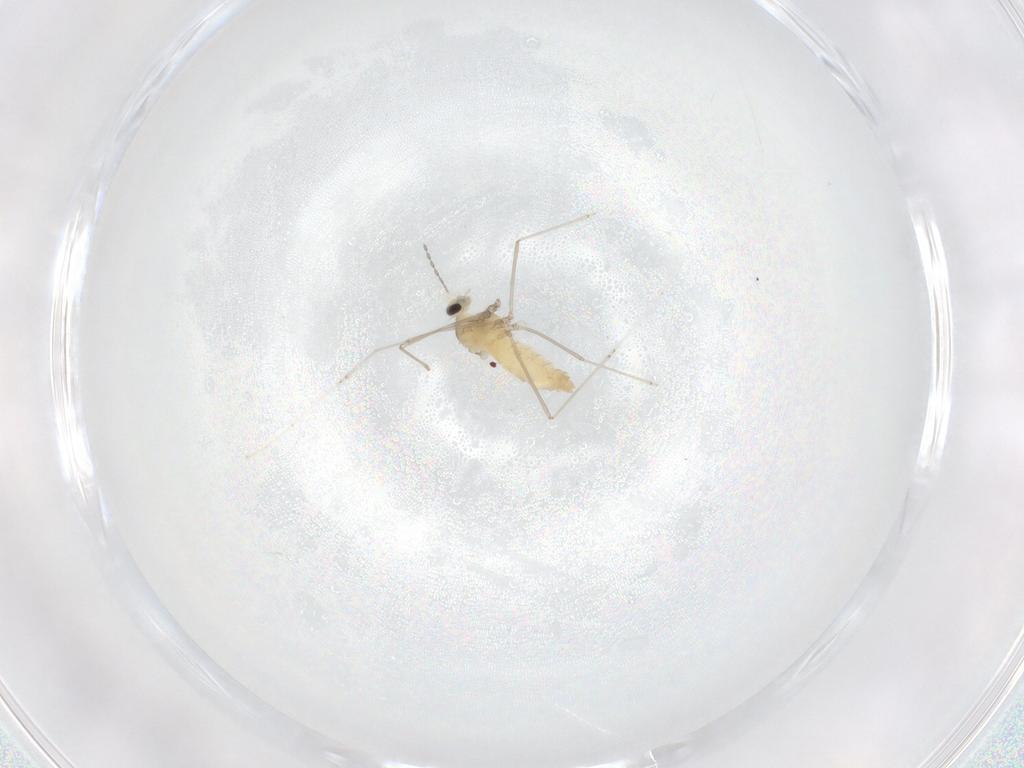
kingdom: Animalia
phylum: Arthropoda
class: Insecta
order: Diptera
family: Cecidomyiidae
